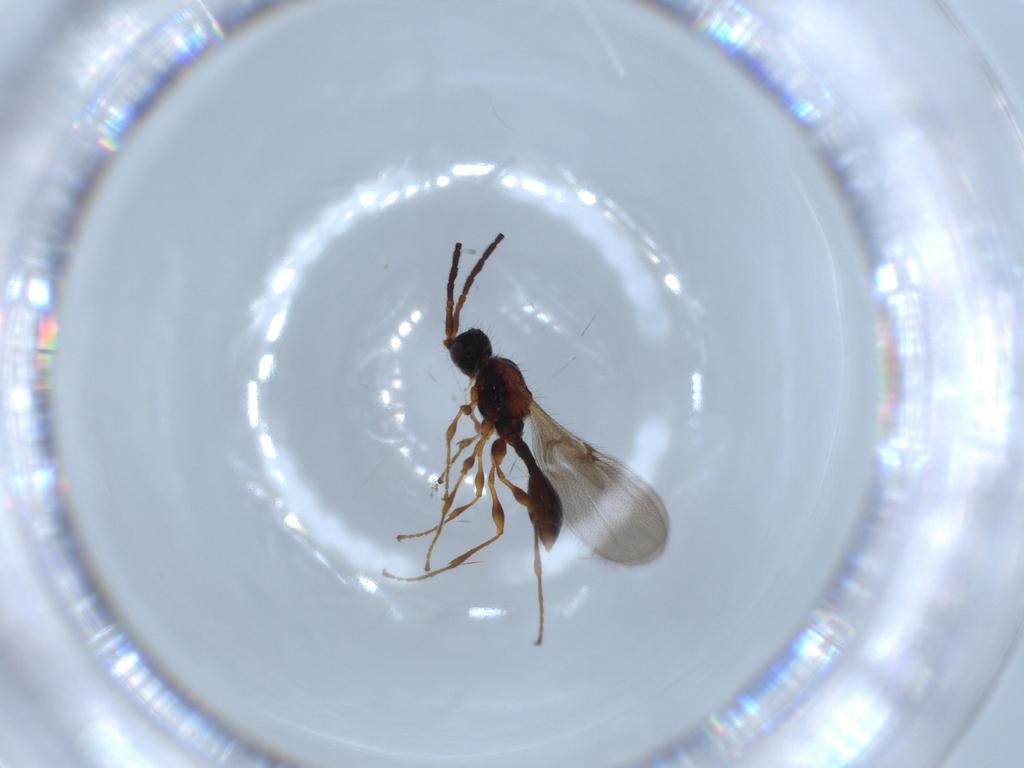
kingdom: Animalia
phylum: Arthropoda
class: Insecta
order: Hymenoptera
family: Diapriidae
